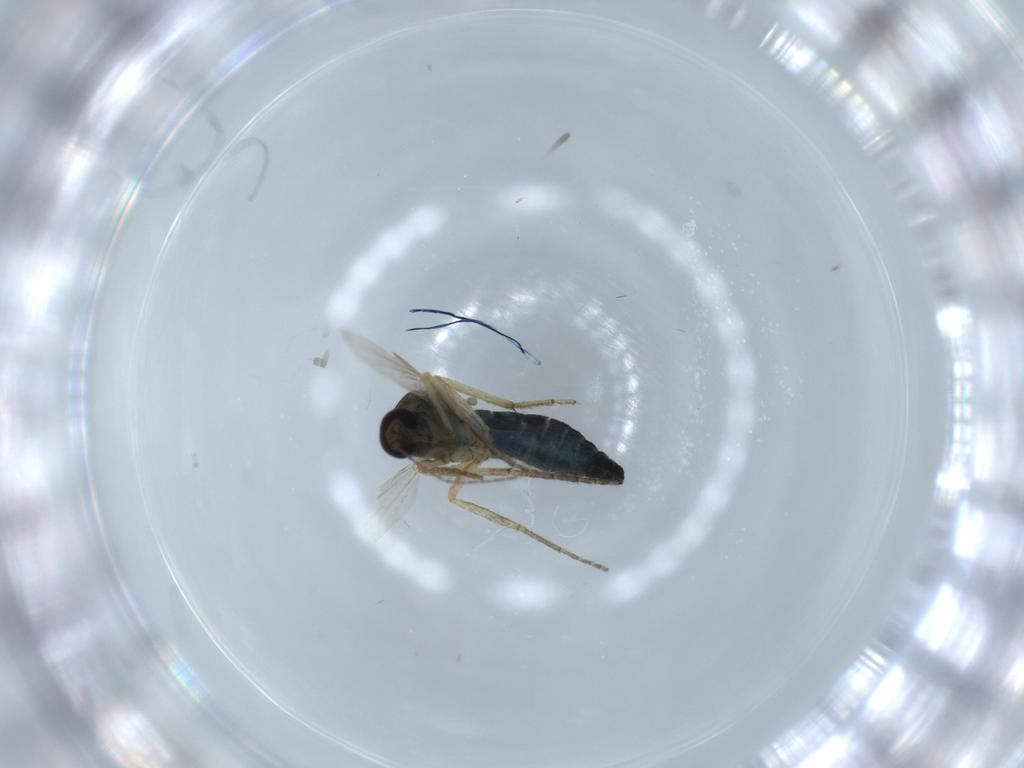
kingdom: Animalia
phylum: Arthropoda
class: Insecta
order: Diptera
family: Ceratopogonidae
